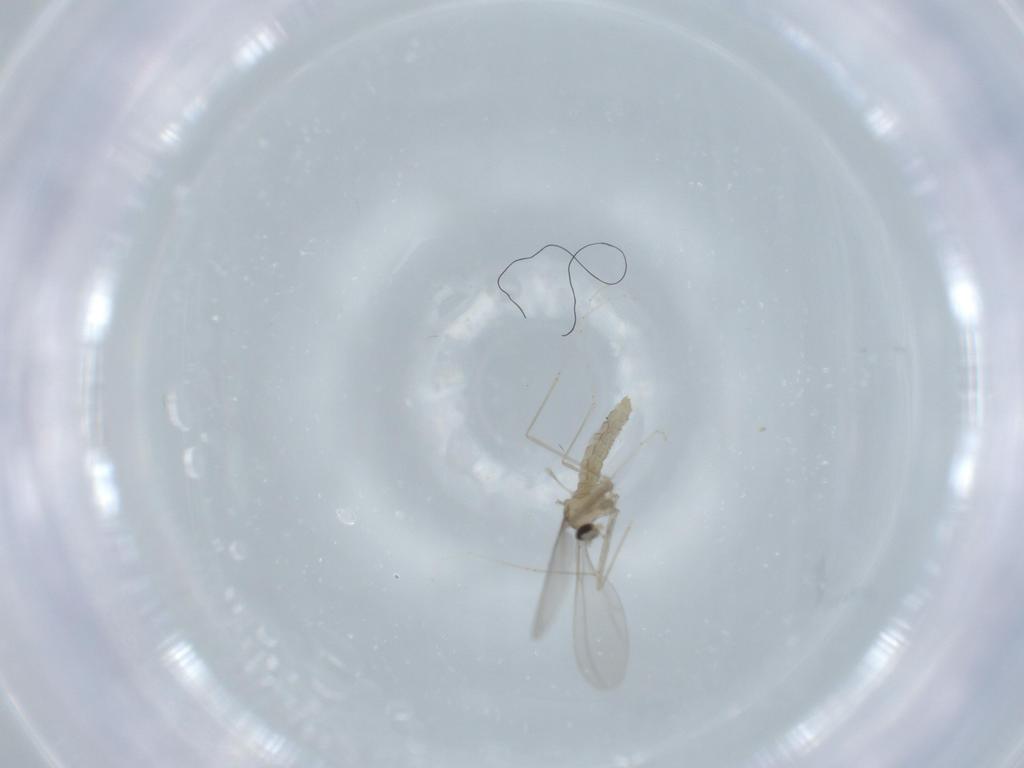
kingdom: Animalia
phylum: Arthropoda
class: Insecta
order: Diptera
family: Cecidomyiidae
